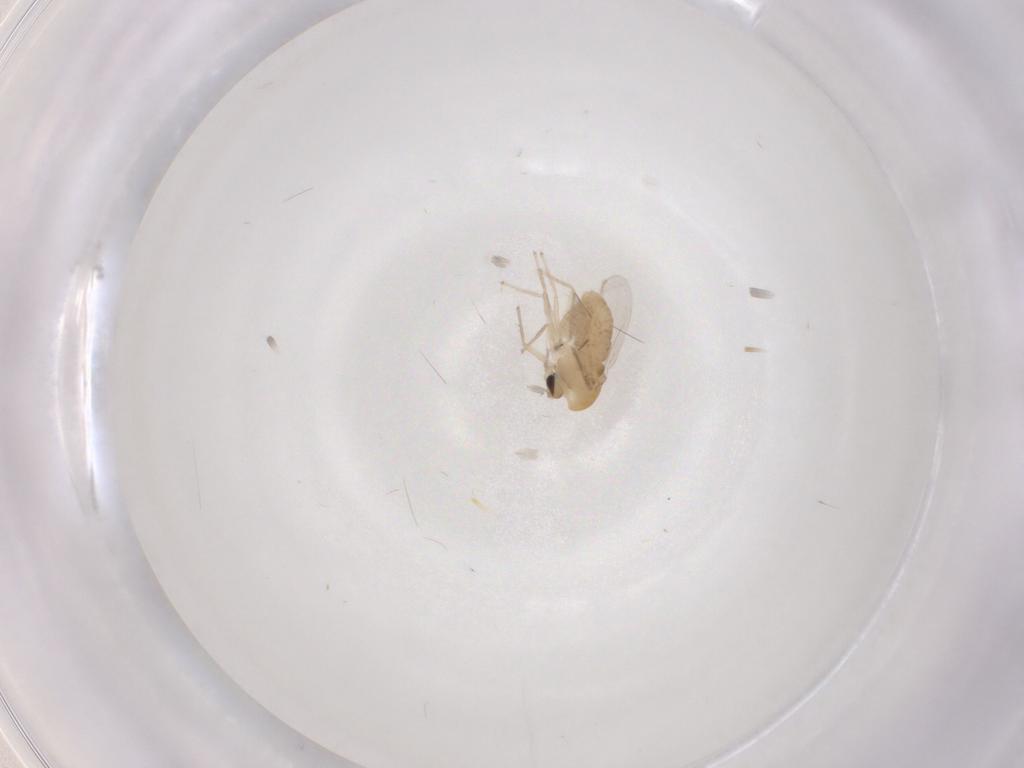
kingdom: Animalia
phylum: Arthropoda
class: Insecta
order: Diptera
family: Chironomidae
